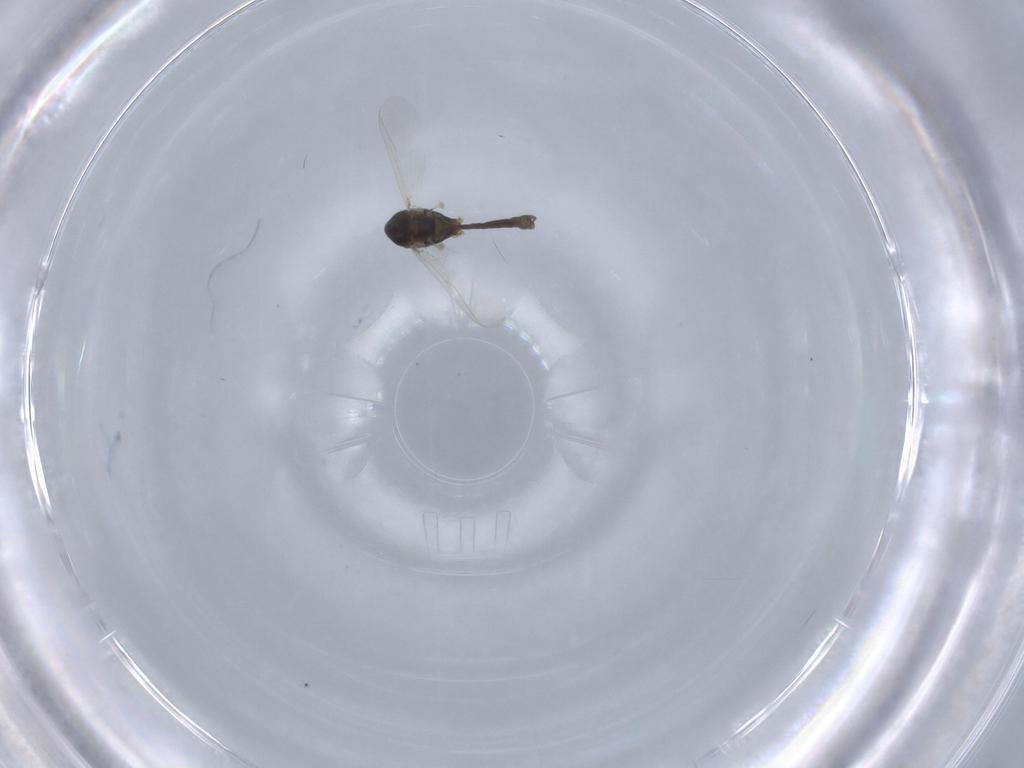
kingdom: Animalia
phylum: Arthropoda
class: Insecta
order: Diptera
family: Chironomidae
